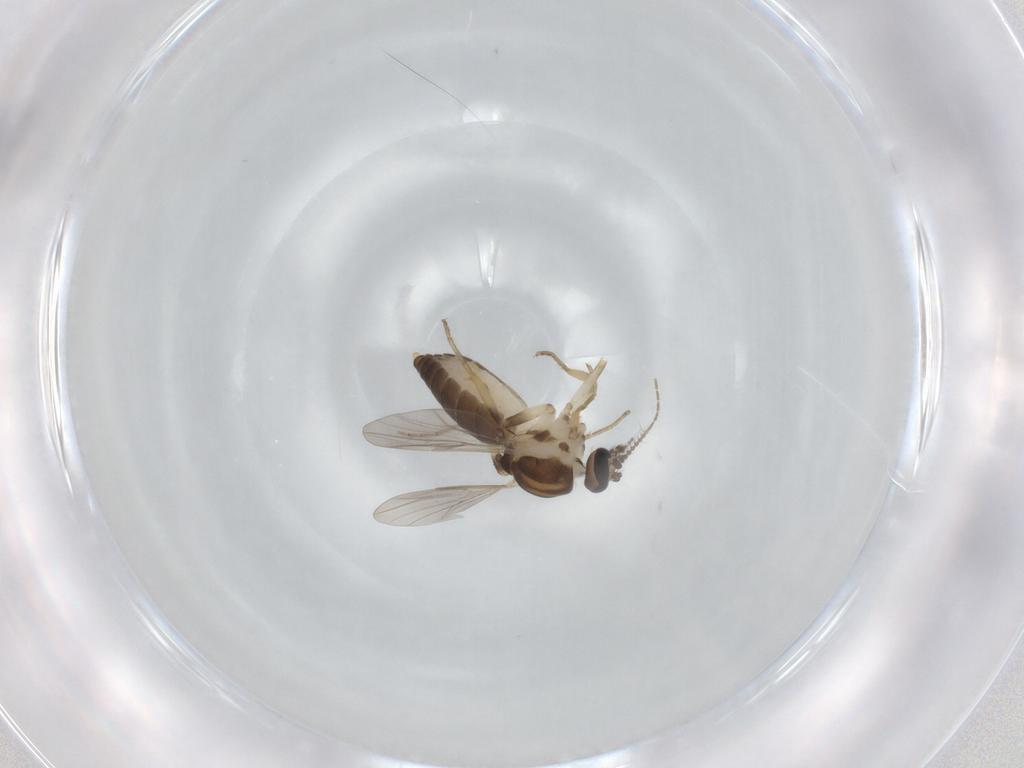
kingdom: Animalia
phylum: Arthropoda
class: Insecta
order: Diptera
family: Ceratopogonidae
